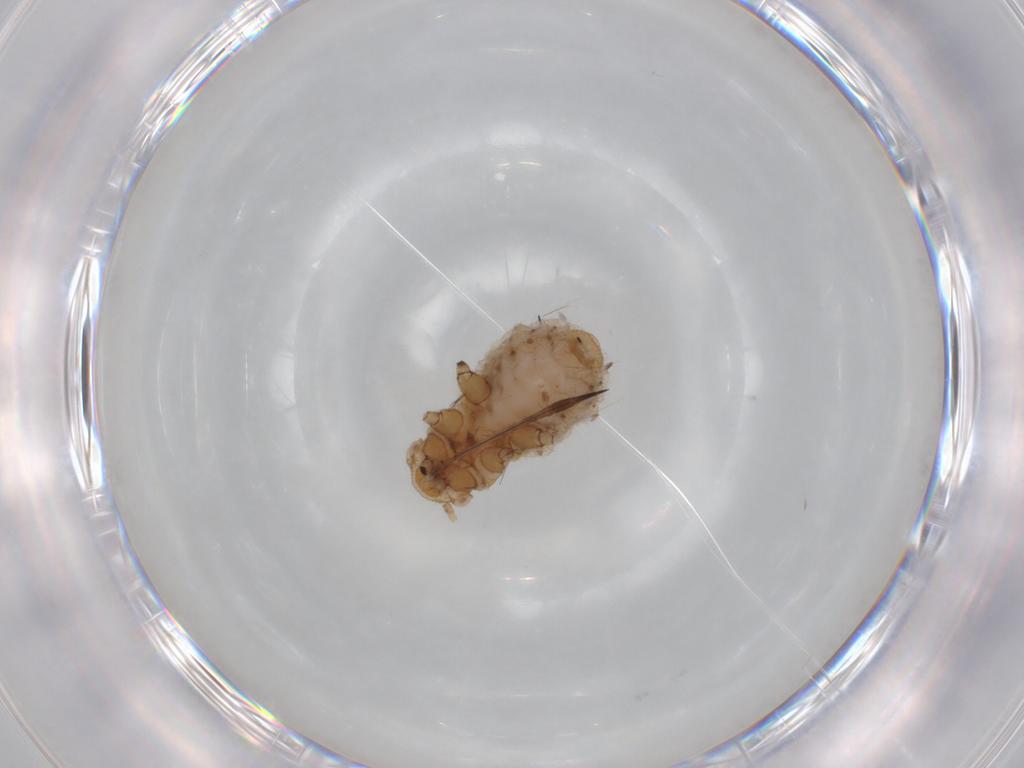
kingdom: Animalia
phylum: Arthropoda
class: Insecta
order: Hemiptera
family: Aphididae
